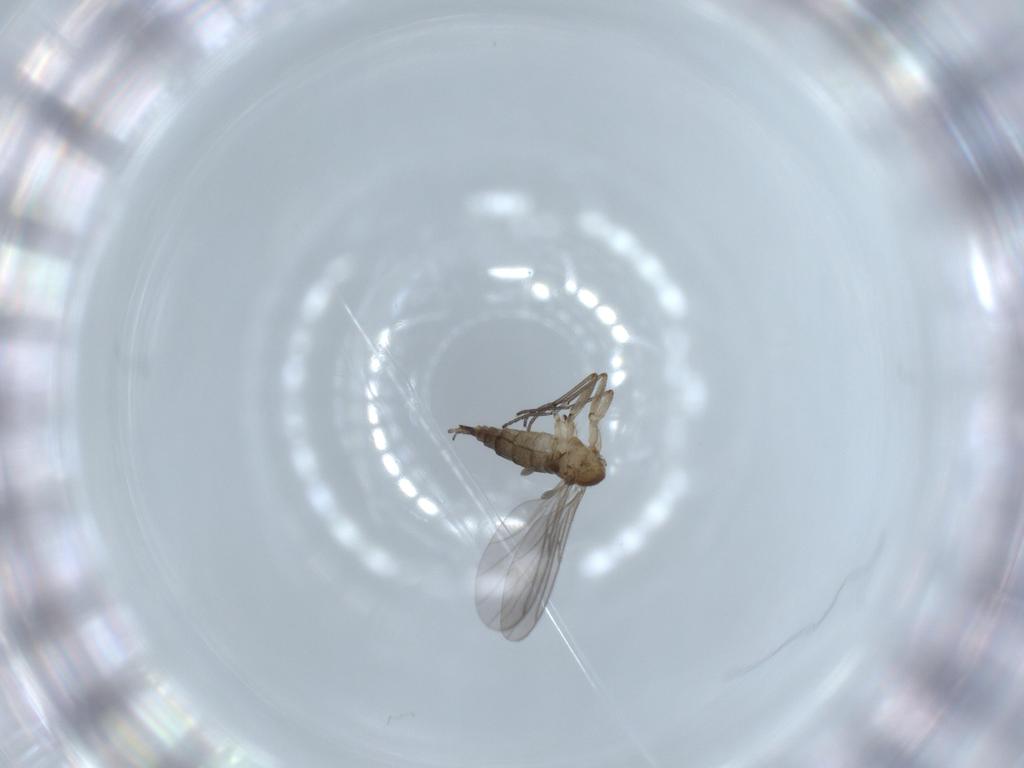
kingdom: Animalia
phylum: Arthropoda
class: Insecta
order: Diptera
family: Sciaridae
